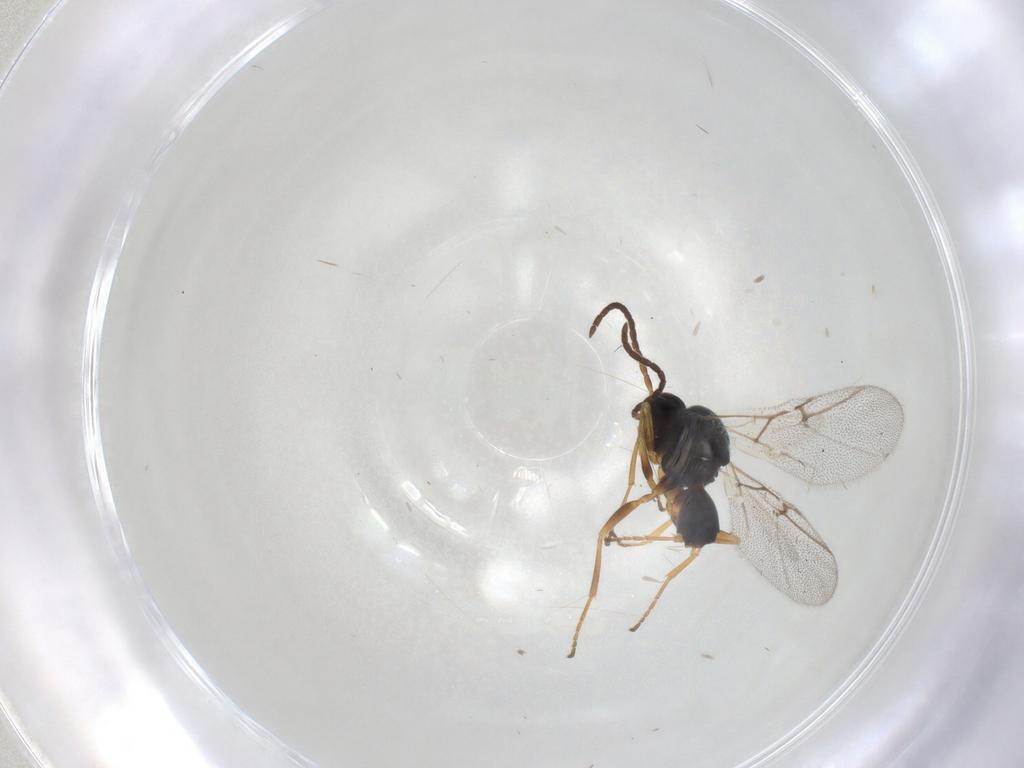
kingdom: Animalia
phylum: Arthropoda
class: Insecta
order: Hymenoptera
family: Cynipidae
